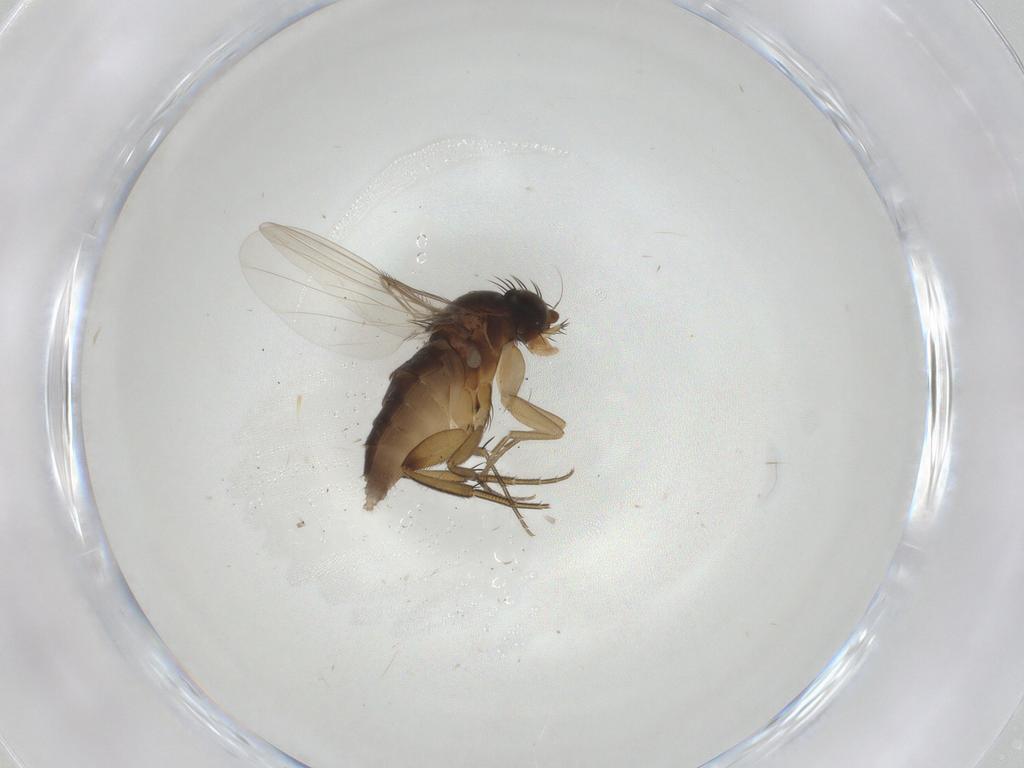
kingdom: Animalia
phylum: Arthropoda
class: Insecta
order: Diptera
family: Phoridae
